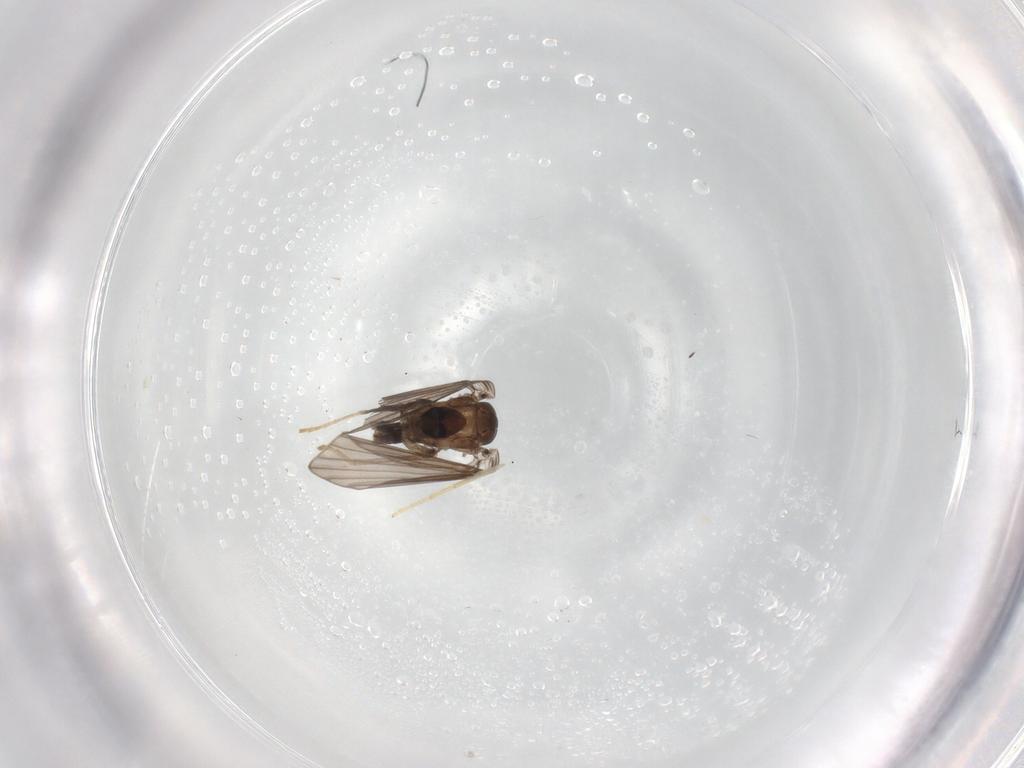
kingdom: Animalia
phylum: Arthropoda
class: Insecta
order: Diptera
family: Psychodidae
